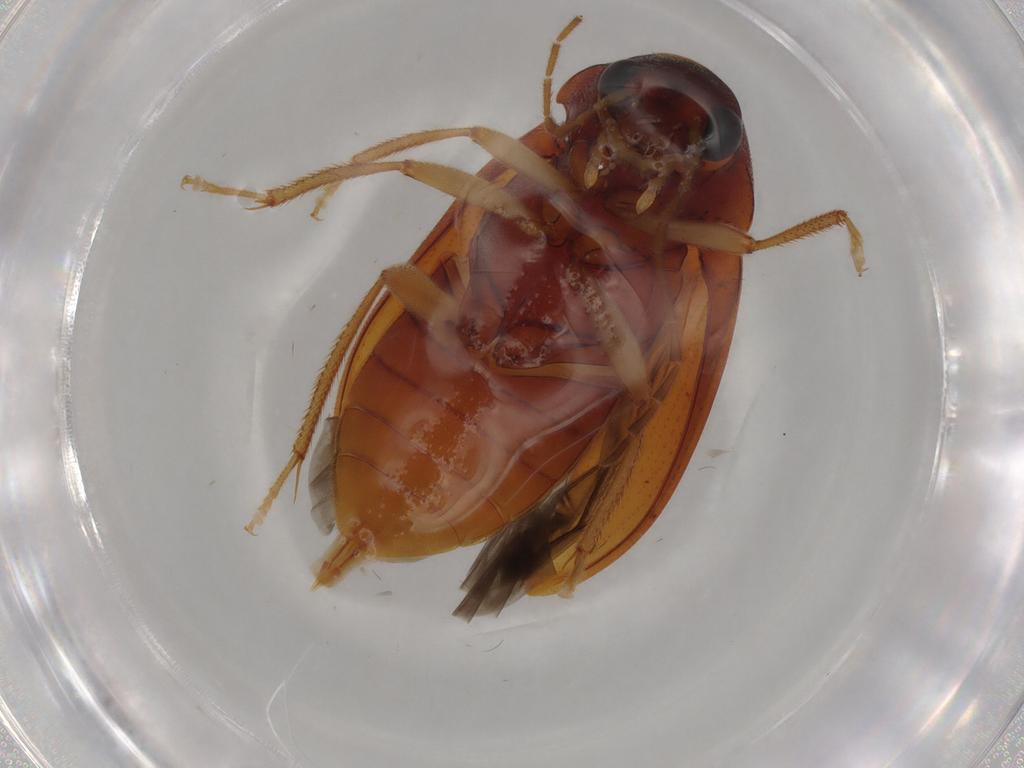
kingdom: Animalia
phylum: Arthropoda
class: Insecta
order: Coleoptera
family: Ptilodactylidae
